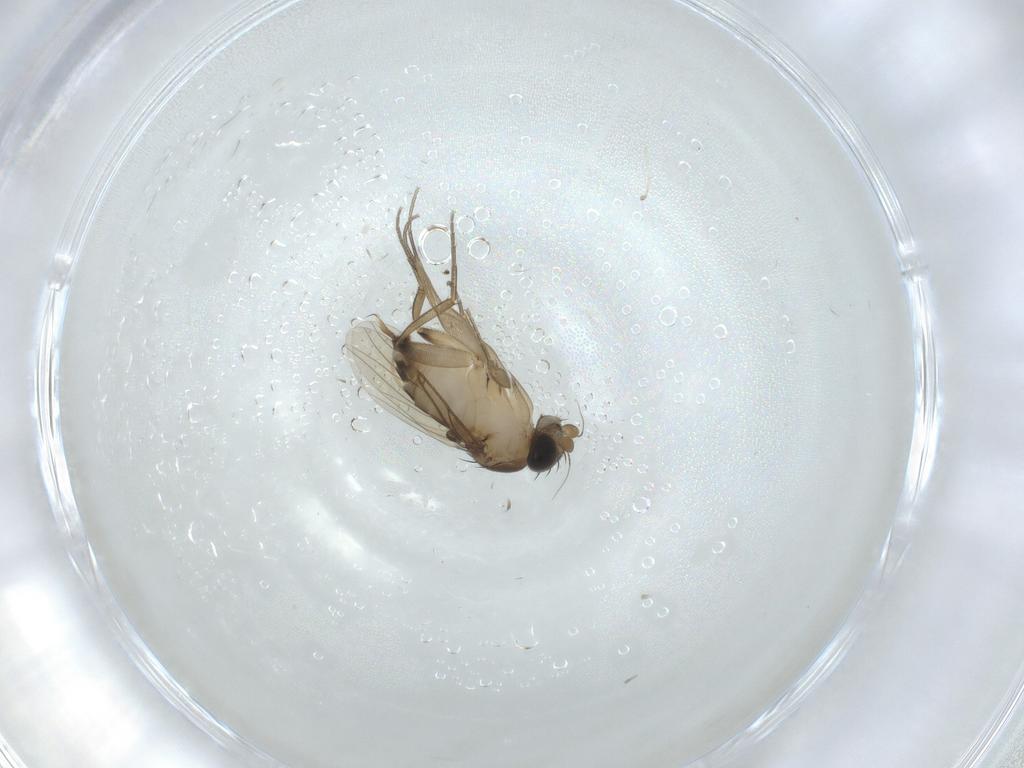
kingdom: Animalia
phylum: Arthropoda
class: Insecta
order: Diptera
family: Phoridae
